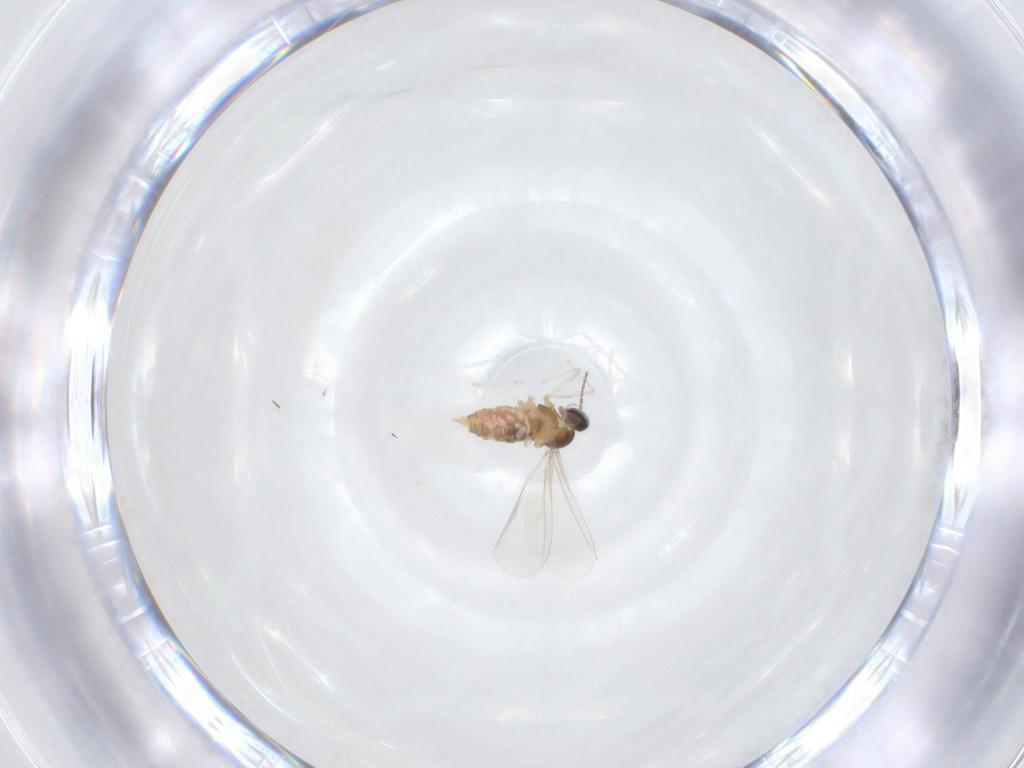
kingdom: Animalia
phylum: Arthropoda
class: Insecta
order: Diptera
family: Cecidomyiidae
